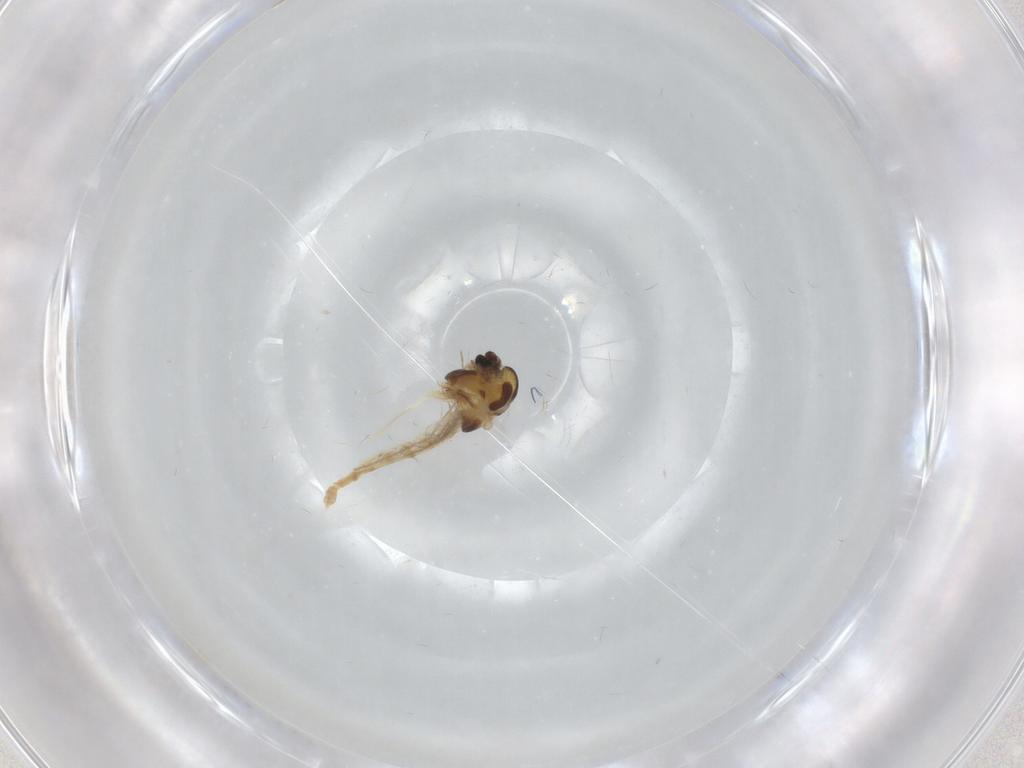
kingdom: Animalia
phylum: Arthropoda
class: Insecta
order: Diptera
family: Chironomidae
